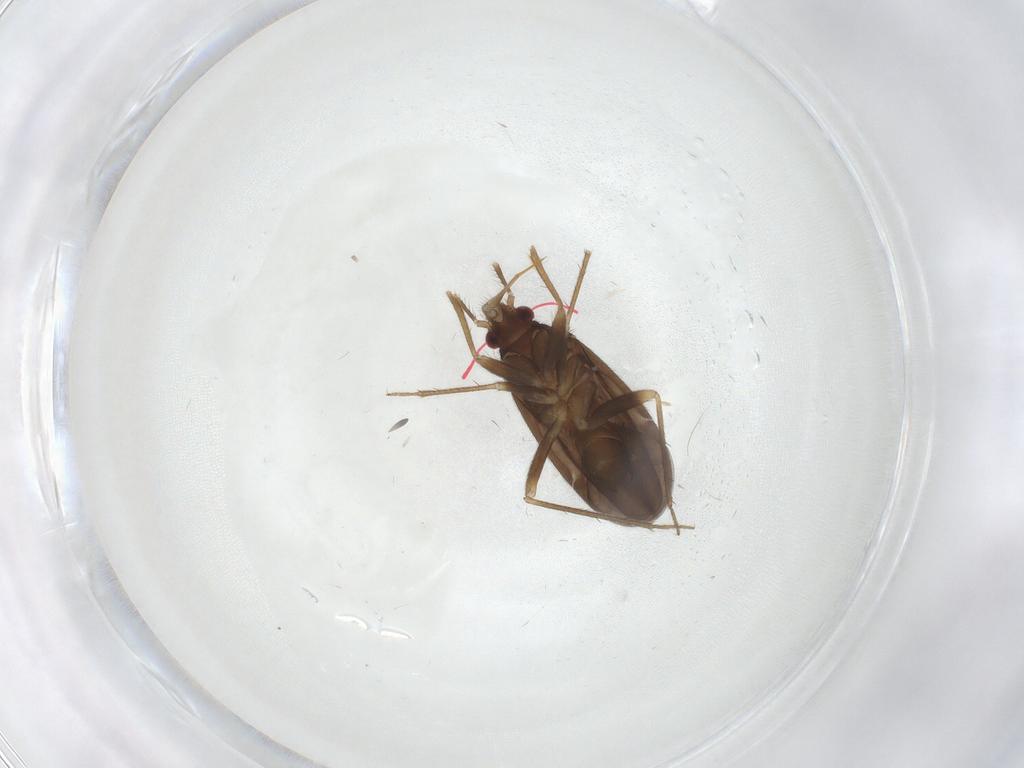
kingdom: Animalia
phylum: Arthropoda
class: Insecta
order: Hemiptera
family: Ceratocombidae
